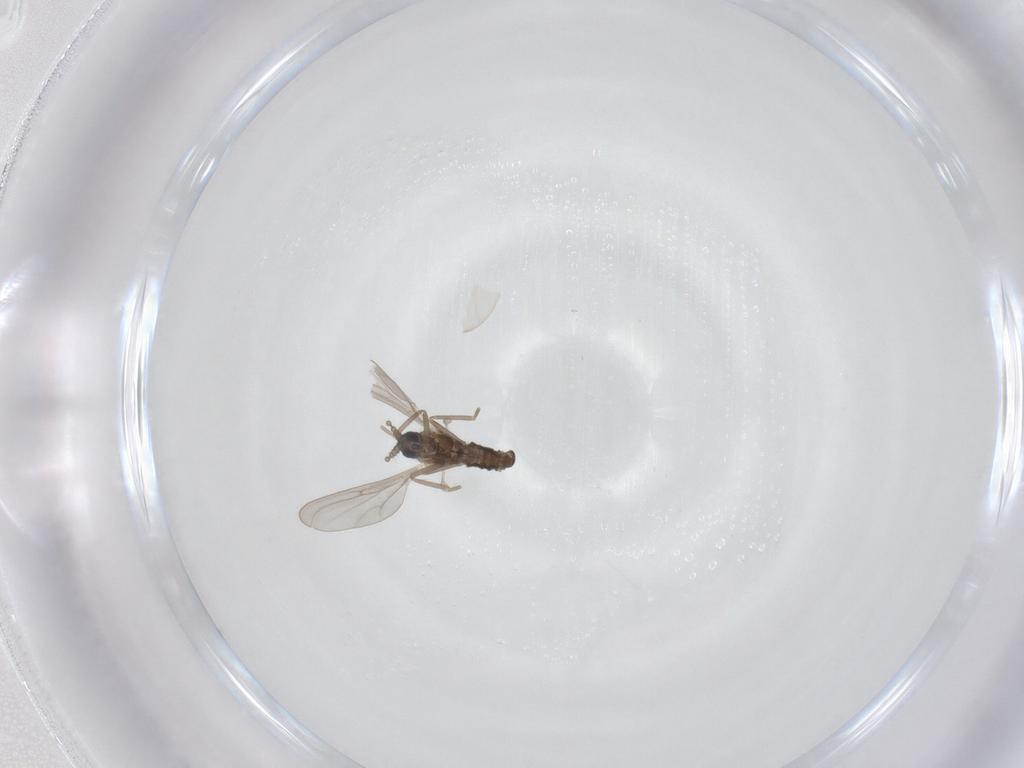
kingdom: Animalia
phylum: Arthropoda
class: Insecta
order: Diptera
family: Cecidomyiidae
